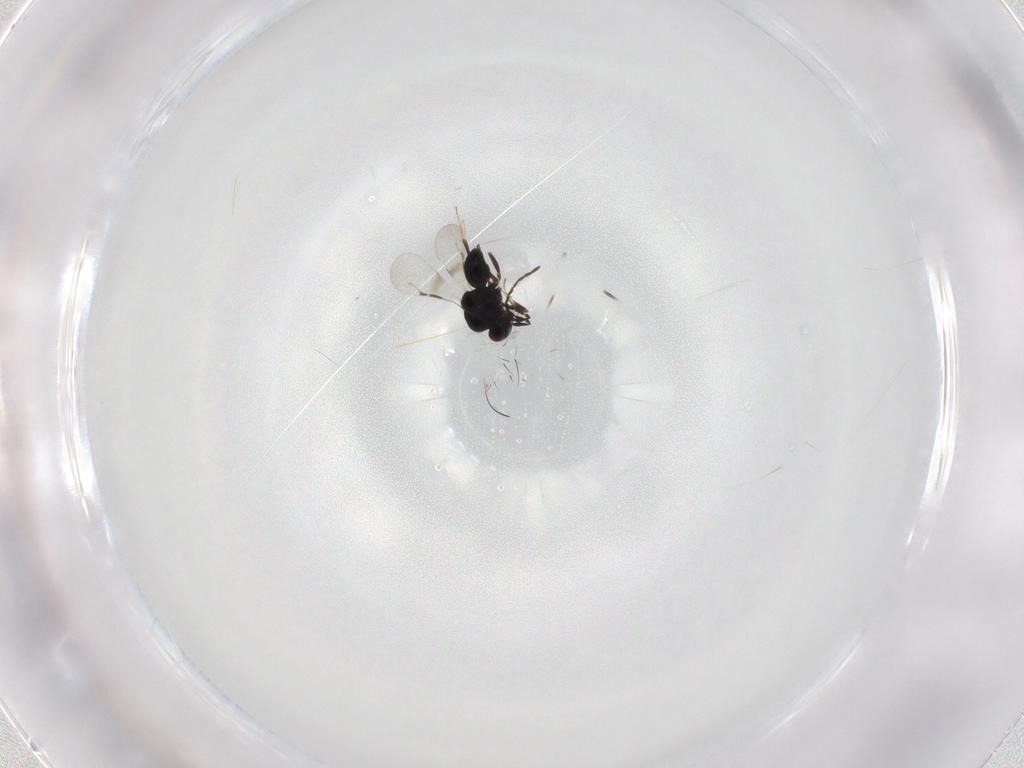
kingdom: Animalia
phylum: Arthropoda
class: Insecta
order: Hymenoptera
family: Ceraphronidae
